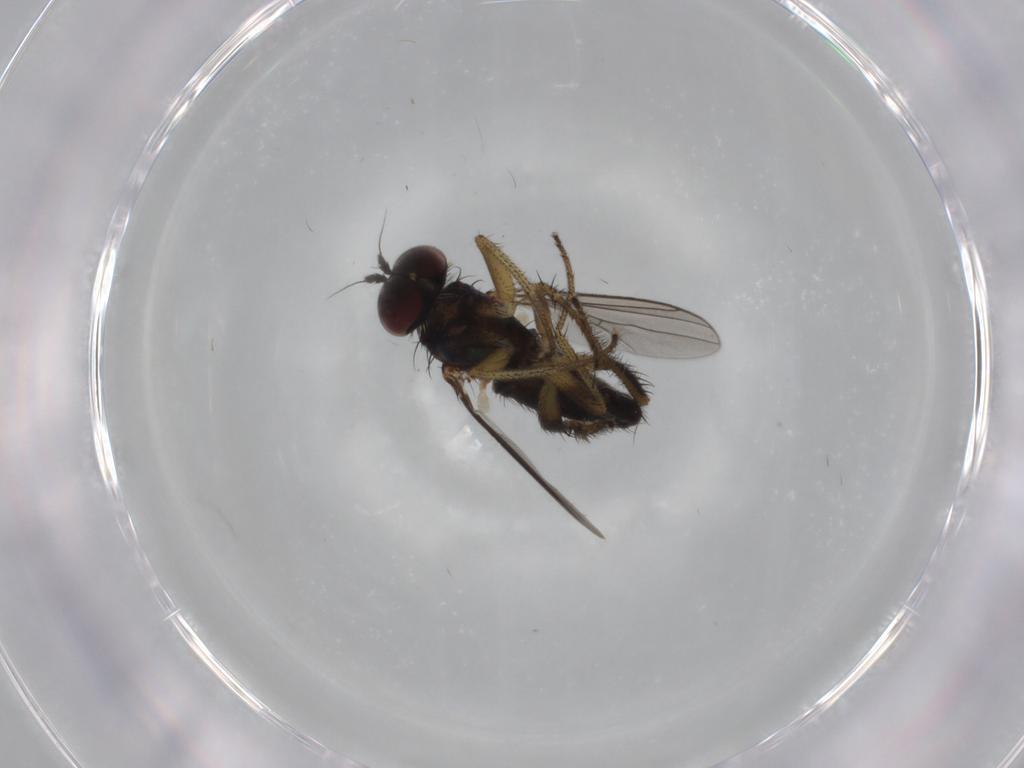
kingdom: Animalia
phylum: Arthropoda
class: Insecta
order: Diptera
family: Dolichopodidae
